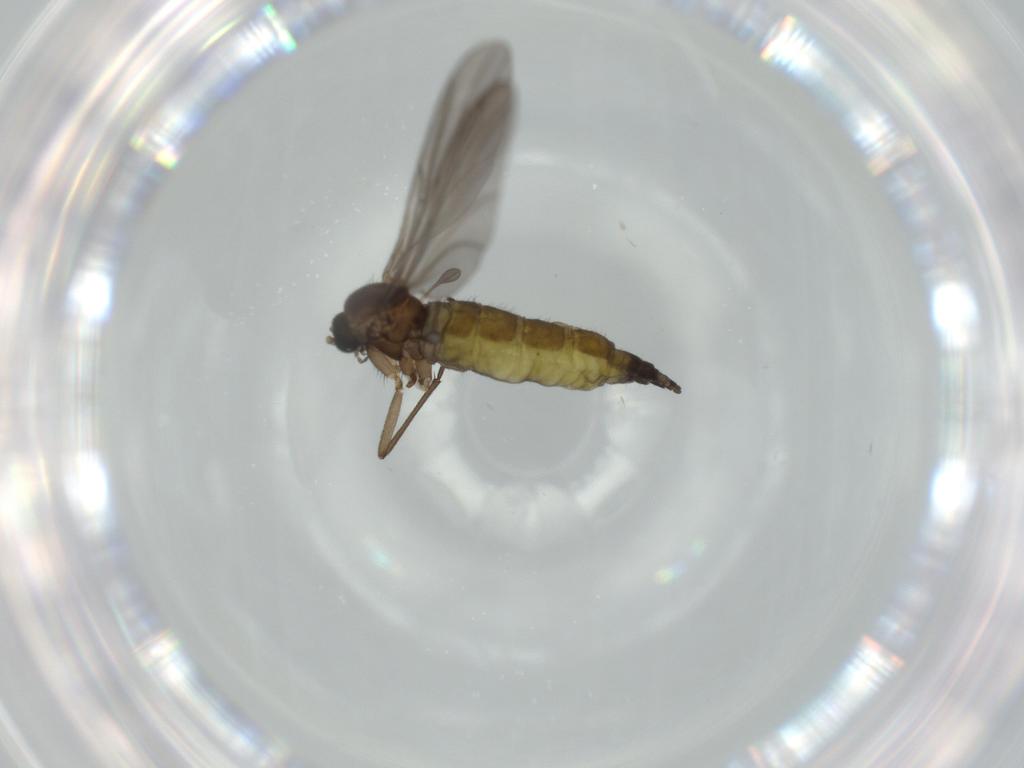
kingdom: Animalia
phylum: Arthropoda
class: Insecta
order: Diptera
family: Sciaridae
